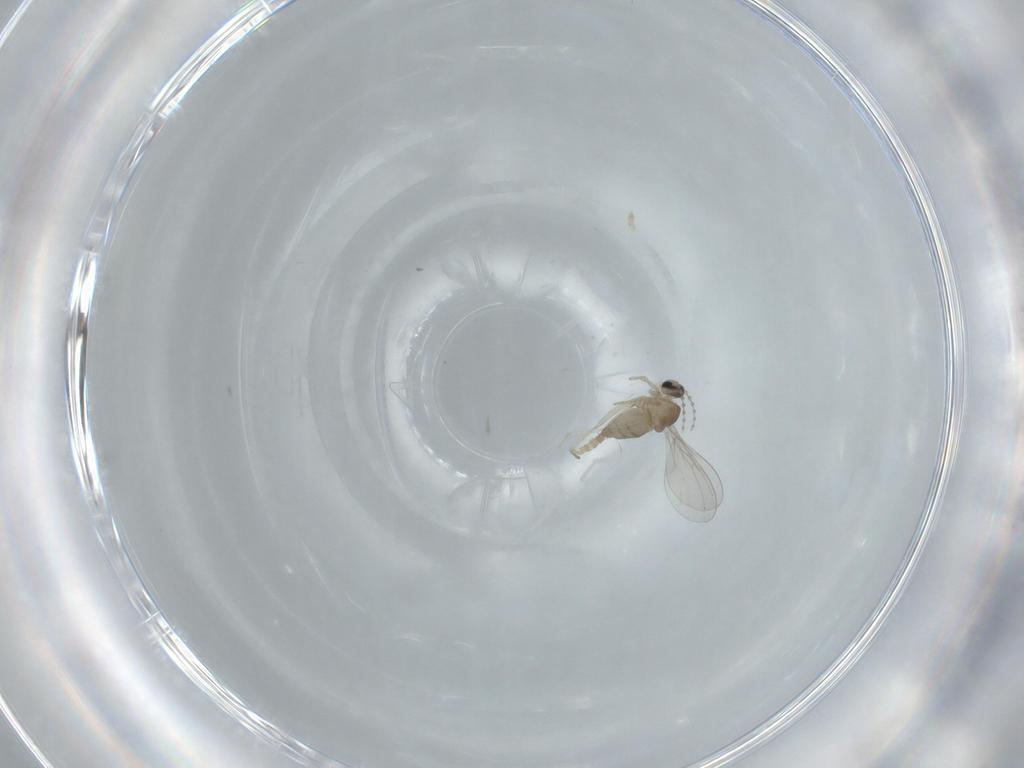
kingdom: Animalia
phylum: Arthropoda
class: Insecta
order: Diptera
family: Cecidomyiidae
